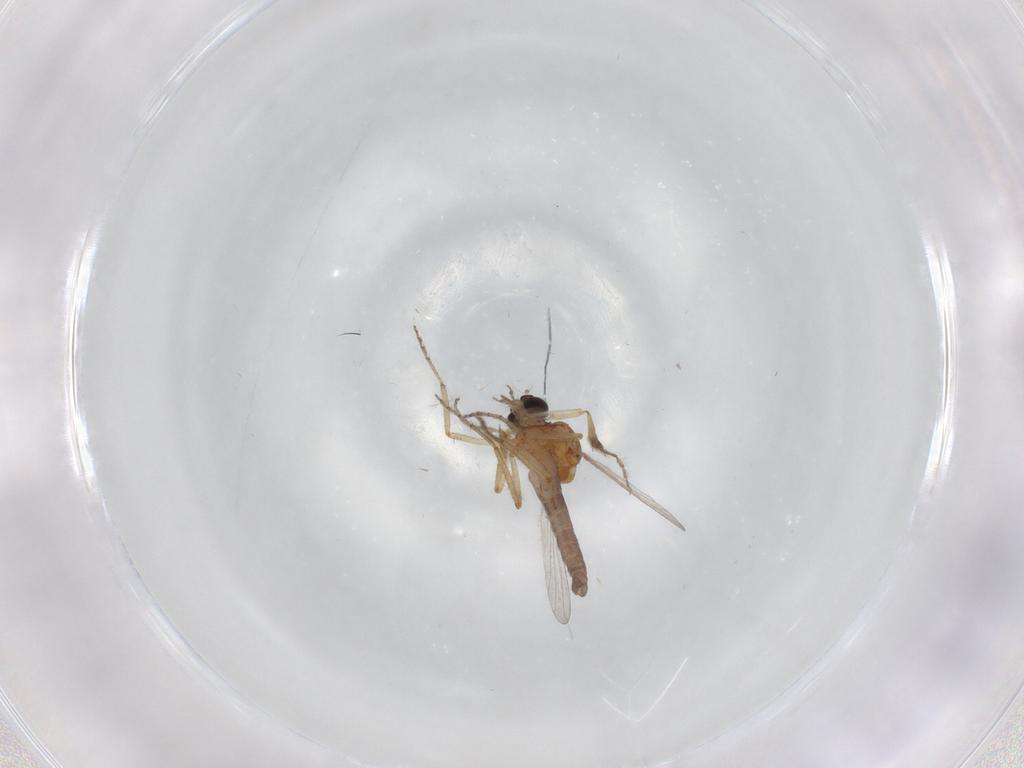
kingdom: Animalia
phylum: Arthropoda
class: Insecta
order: Diptera
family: Ceratopogonidae
